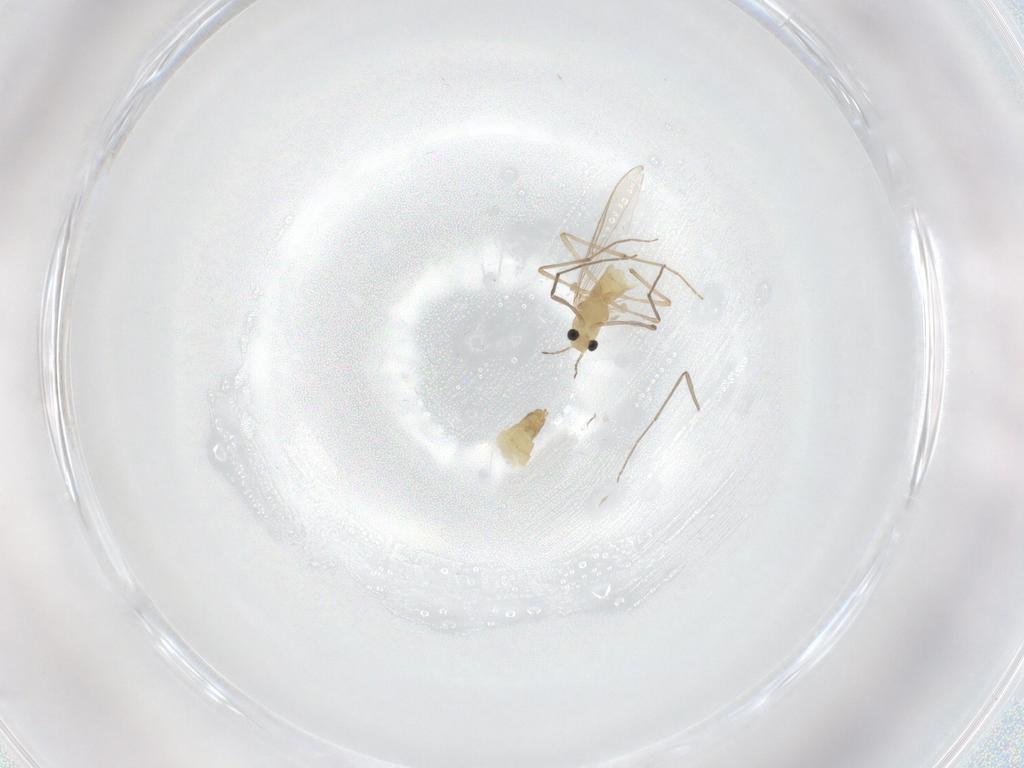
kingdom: Animalia
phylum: Arthropoda
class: Insecta
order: Diptera
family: Chironomidae
